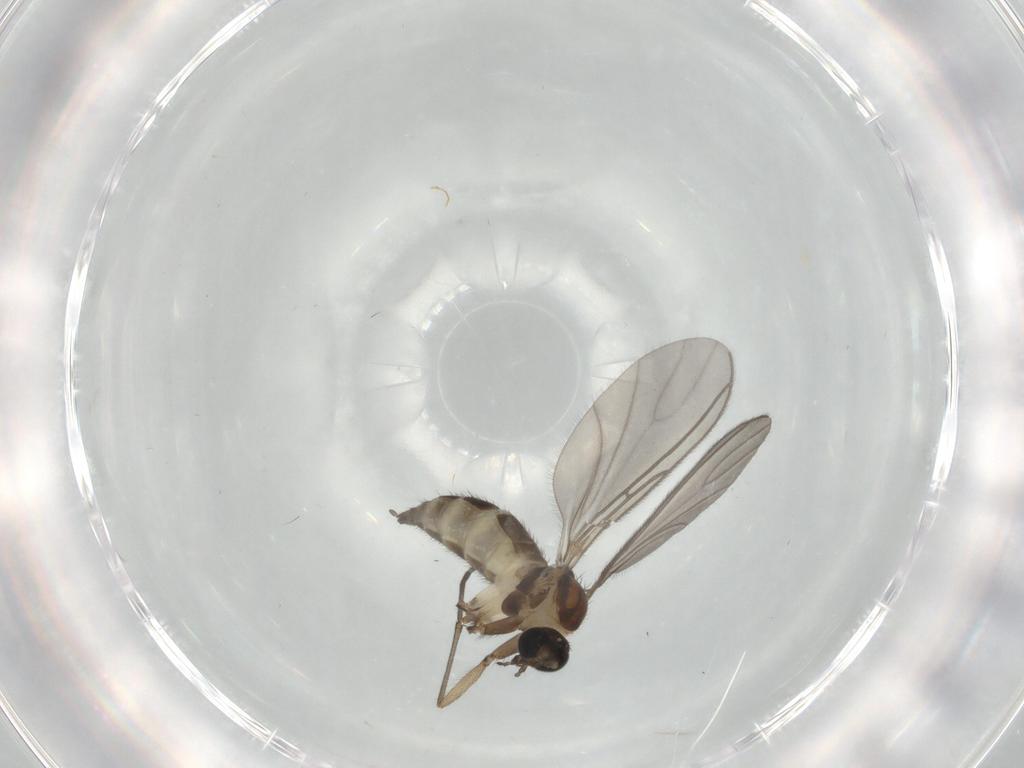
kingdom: Animalia
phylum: Arthropoda
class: Insecta
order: Diptera
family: Sciaridae
